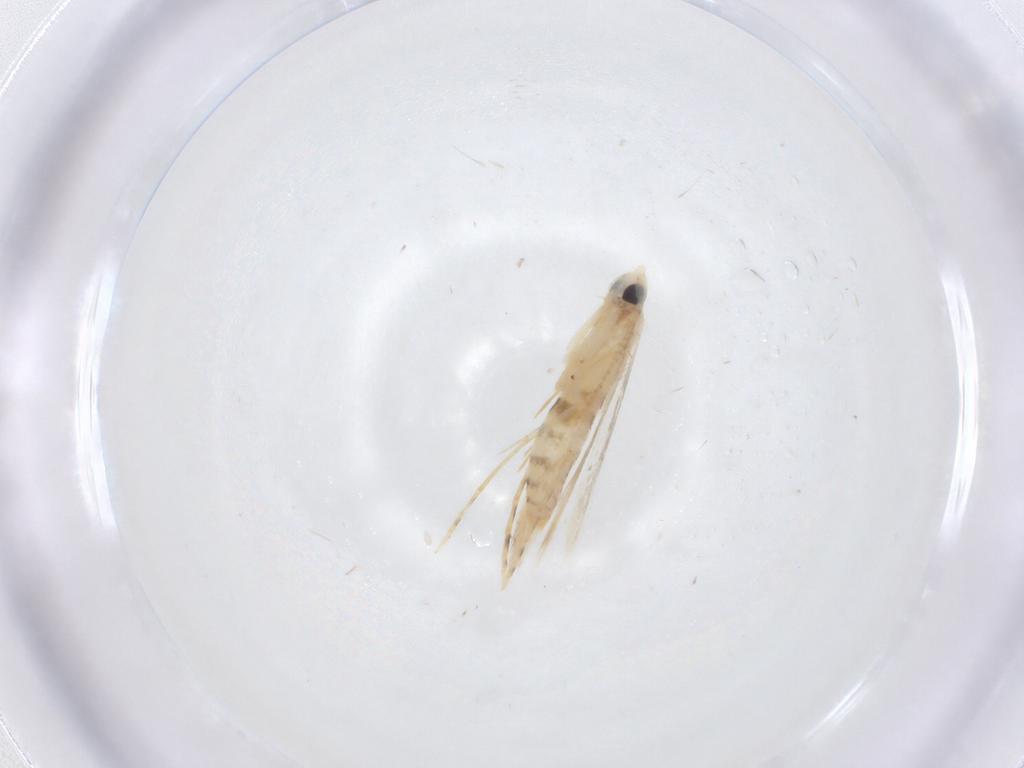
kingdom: Animalia
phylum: Arthropoda
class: Insecta
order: Lepidoptera
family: Tineidae
